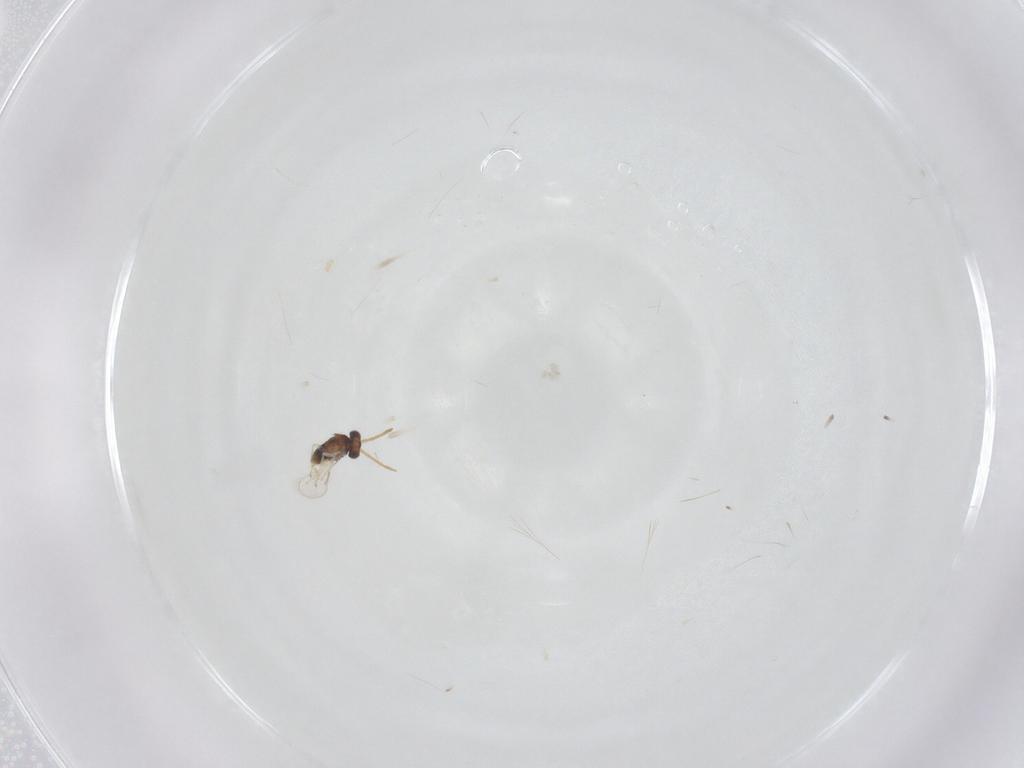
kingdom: Animalia
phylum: Arthropoda
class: Insecta
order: Hymenoptera
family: Aphelinidae
